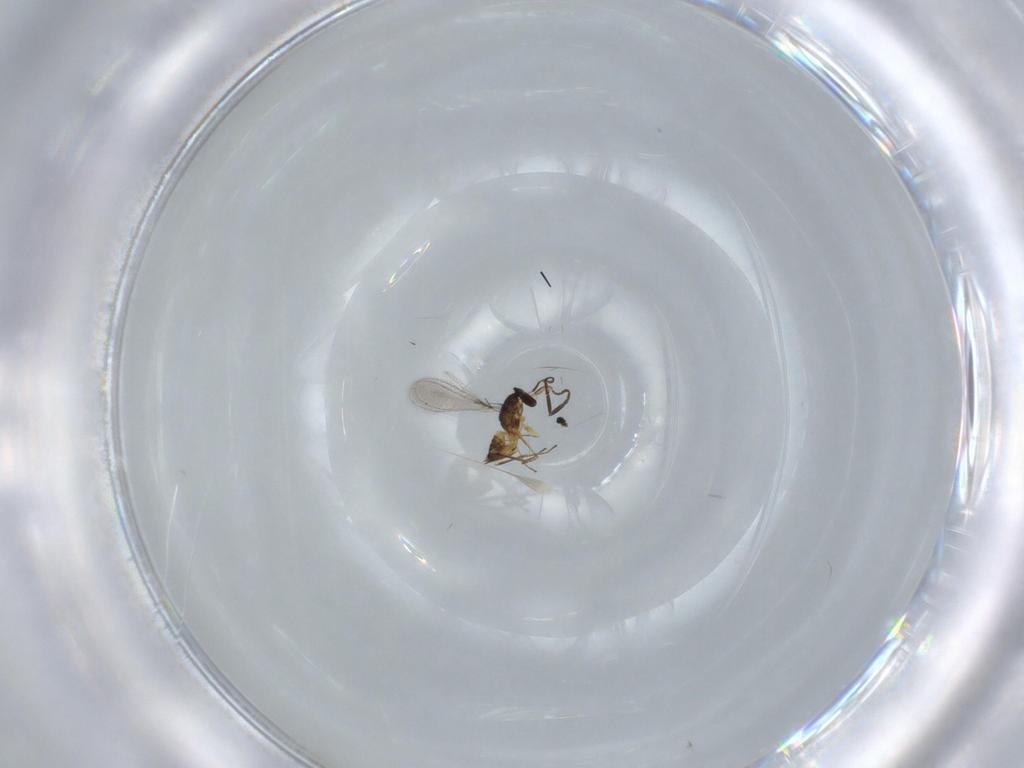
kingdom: Animalia
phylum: Arthropoda
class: Insecta
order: Hymenoptera
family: Mymaridae
